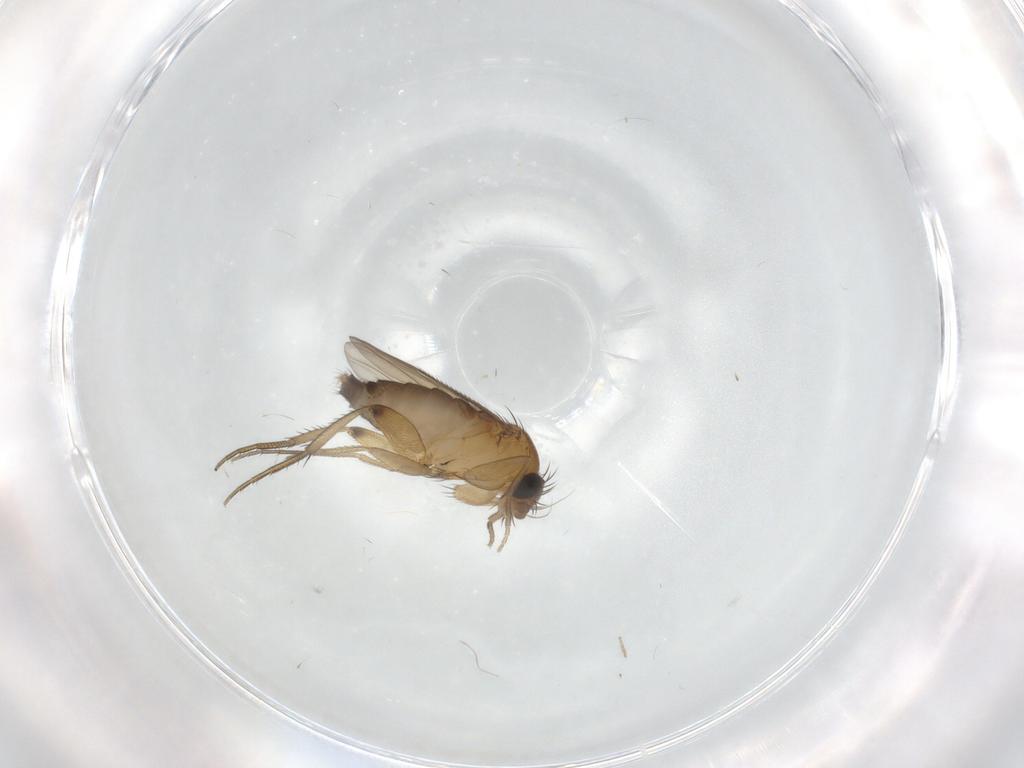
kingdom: Animalia
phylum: Arthropoda
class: Insecta
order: Diptera
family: Phoridae
